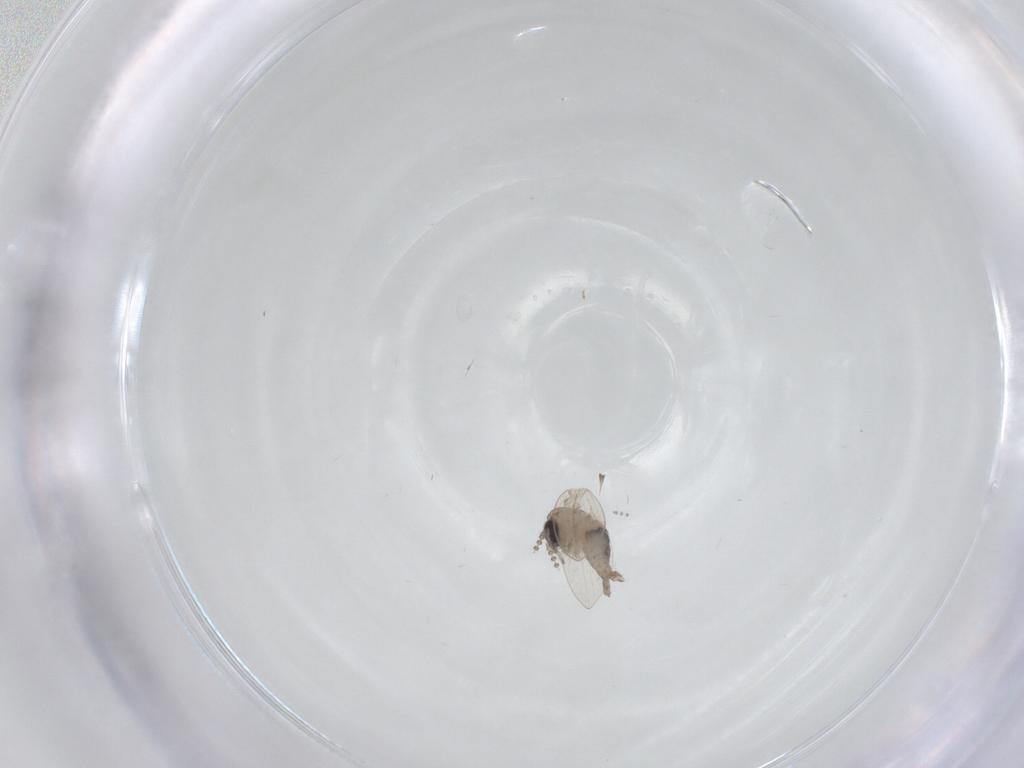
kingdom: Animalia
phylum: Arthropoda
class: Insecta
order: Diptera
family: Psychodidae
